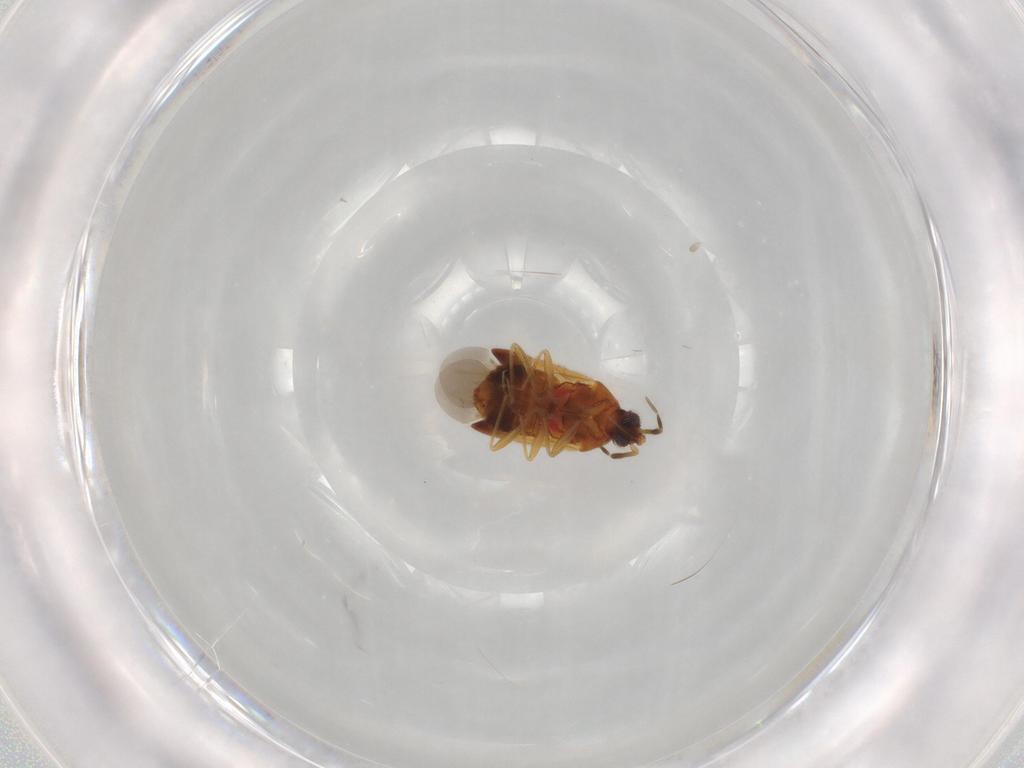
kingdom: Animalia
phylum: Arthropoda
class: Insecta
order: Hemiptera
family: Anthocoridae
